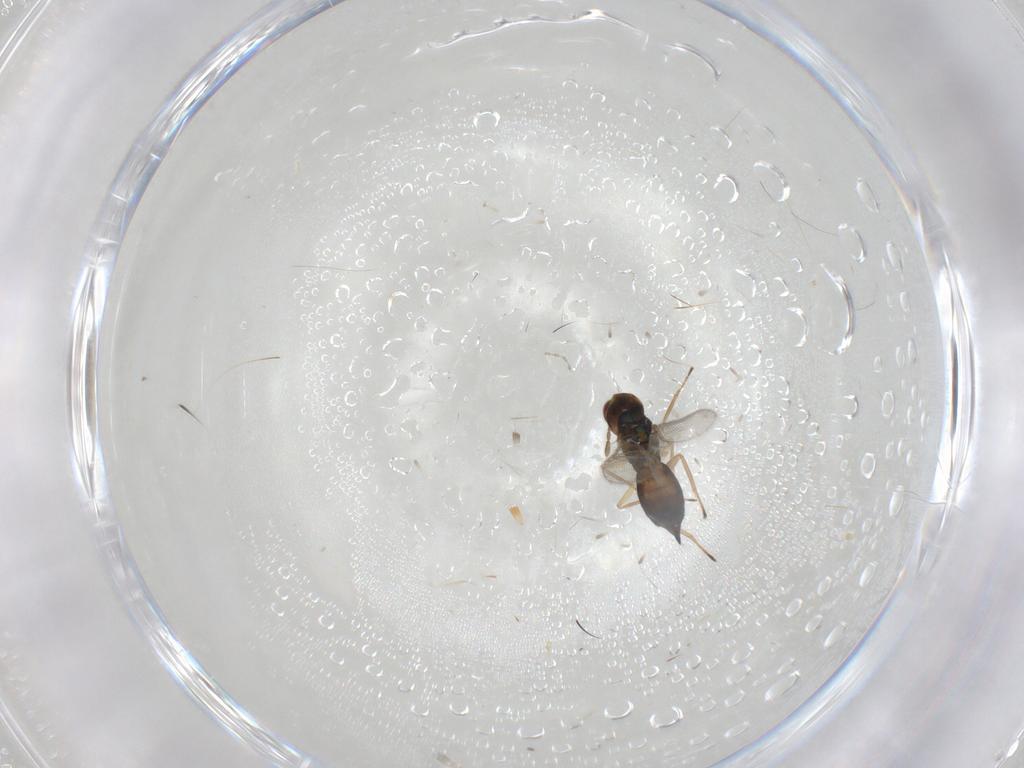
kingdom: Animalia
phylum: Arthropoda
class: Insecta
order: Hymenoptera
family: Eulophidae
